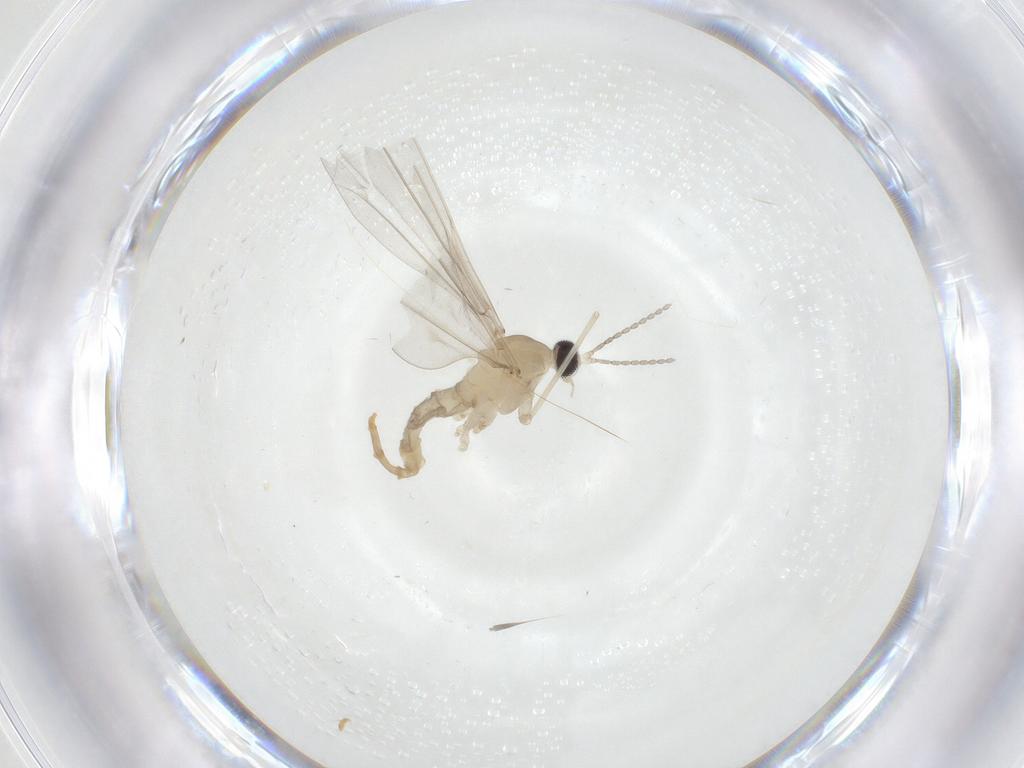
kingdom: Animalia
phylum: Arthropoda
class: Insecta
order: Diptera
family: Cecidomyiidae
